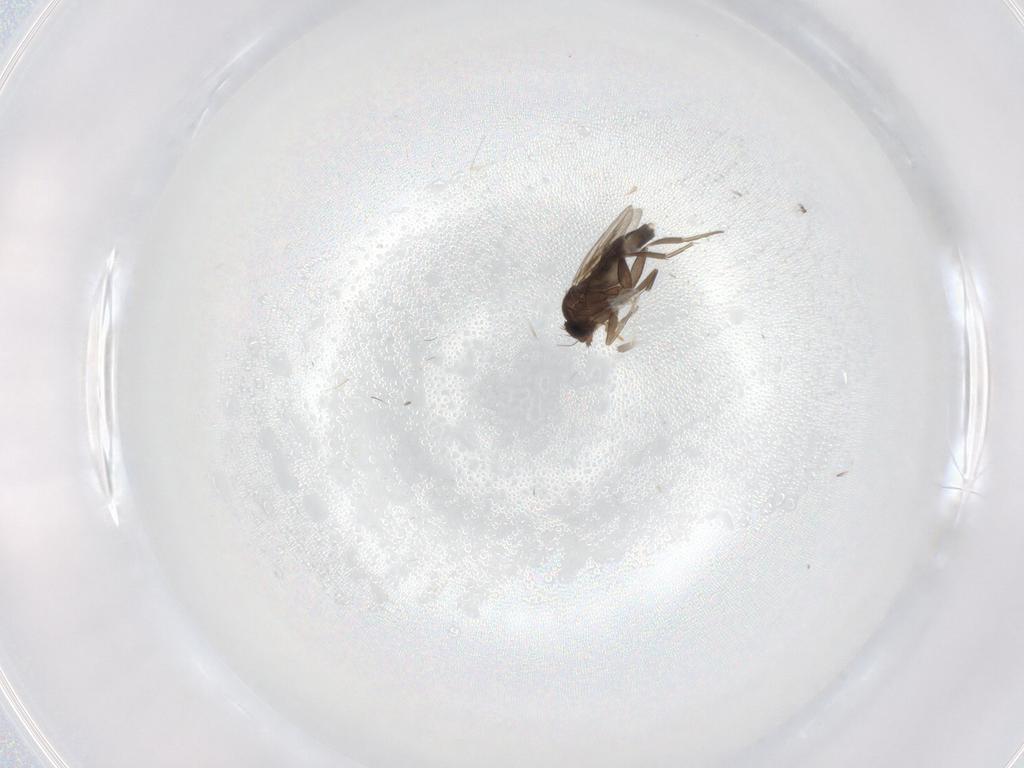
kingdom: Animalia
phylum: Arthropoda
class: Insecta
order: Diptera
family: Phoridae
